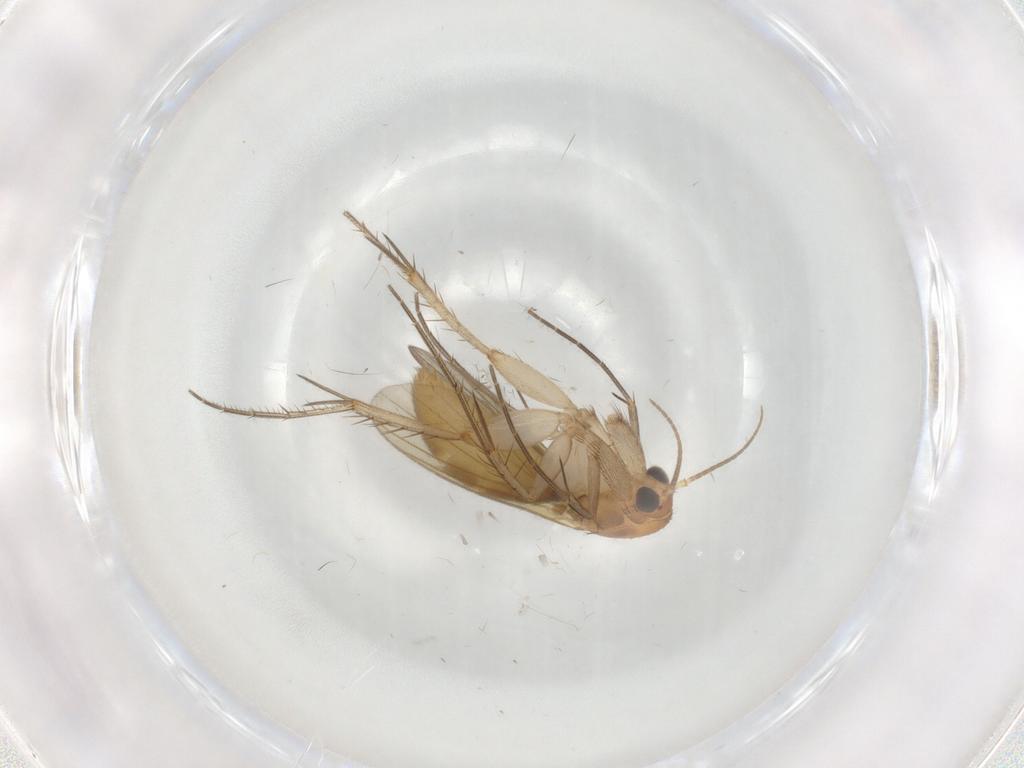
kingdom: Animalia
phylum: Arthropoda
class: Insecta
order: Diptera
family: Mycetophilidae
